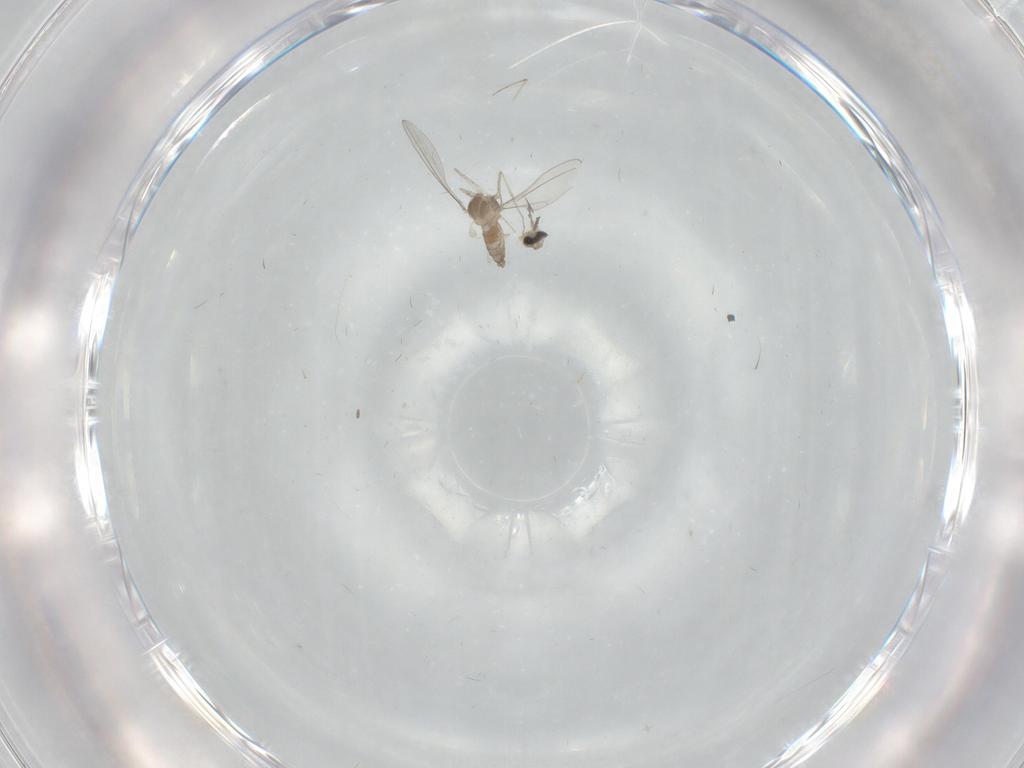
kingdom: Animalia
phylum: Arthropoda
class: Insecta
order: Diptera
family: Cecidomyiidae
